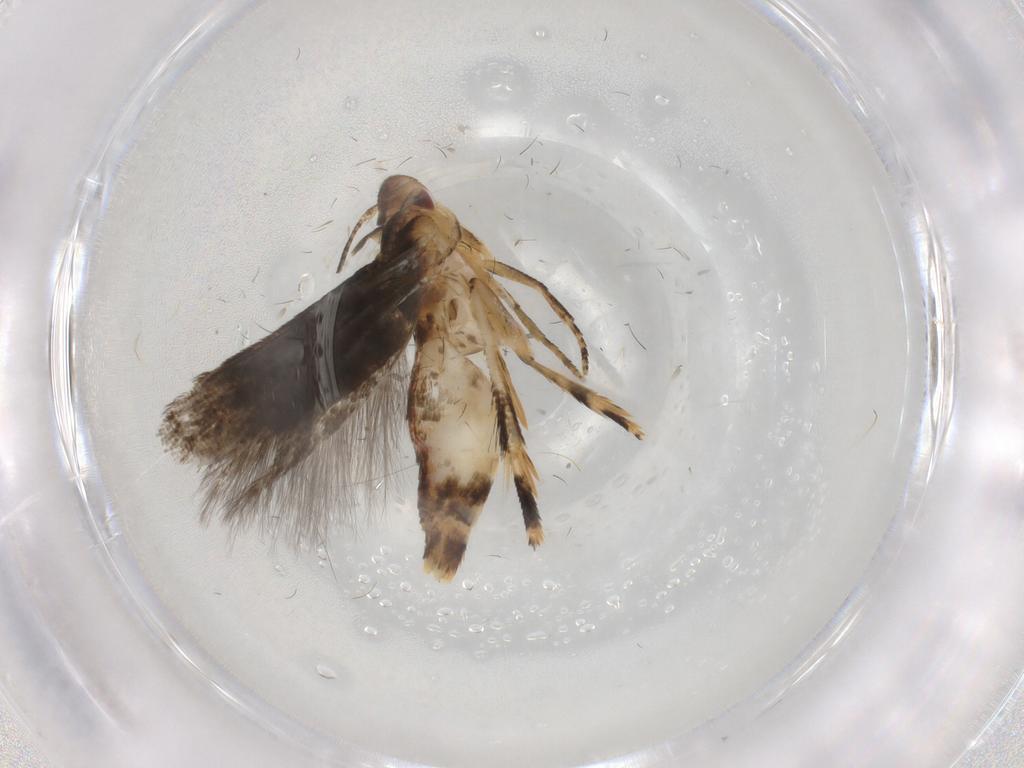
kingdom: Animalia
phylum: Arthropoda
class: Insecta
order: Lepidoptera
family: Momphidae
